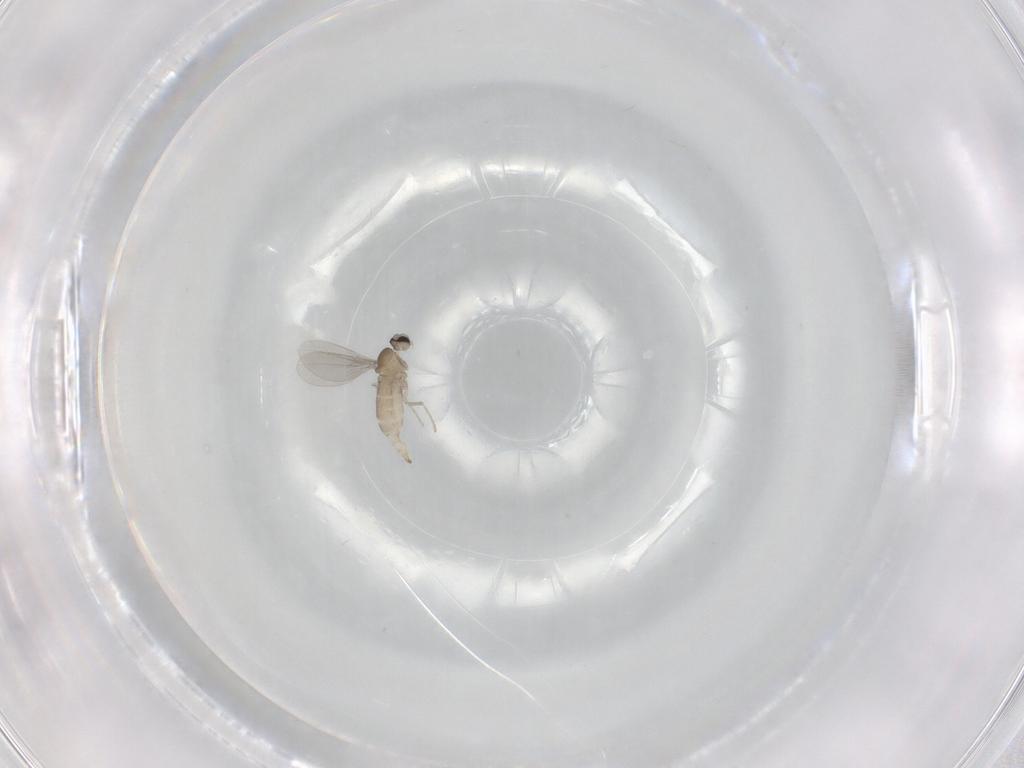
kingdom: Animalia
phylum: Arthropoda
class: Insecta
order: Diptera
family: Cecidomyiidae
